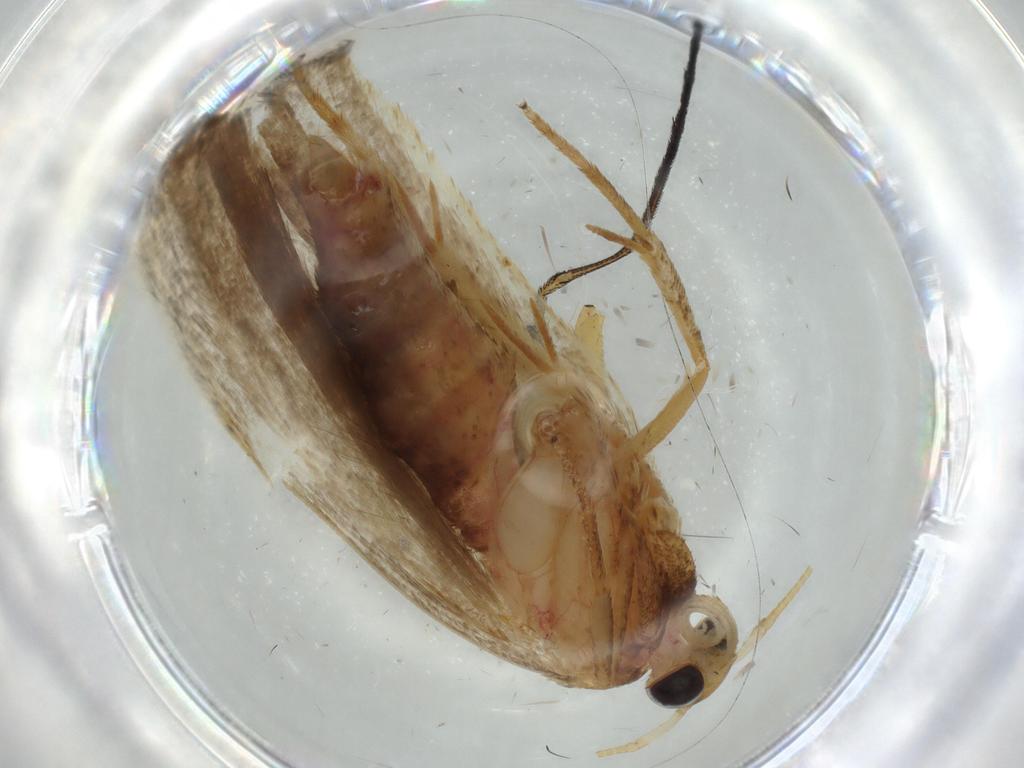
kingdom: Animalia
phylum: Arthropoda
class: Insecta
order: Lepidoptera
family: Autostichidae
